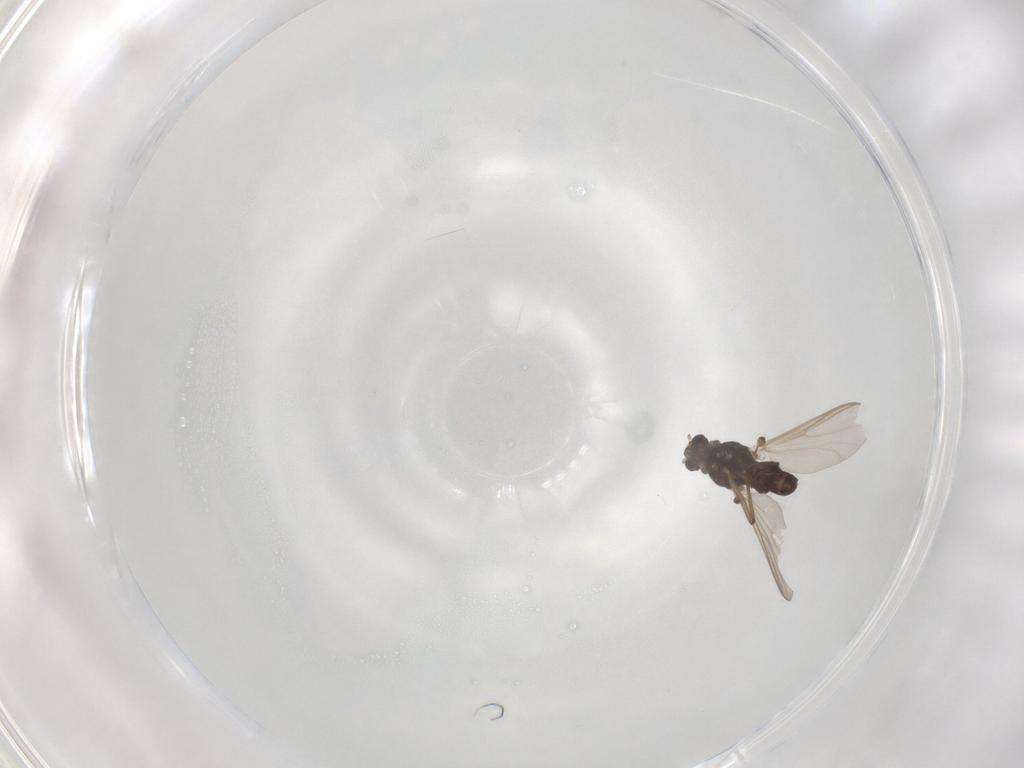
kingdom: Animalia
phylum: Arthropoda
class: Insecta
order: Diptera
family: Chironomidae
